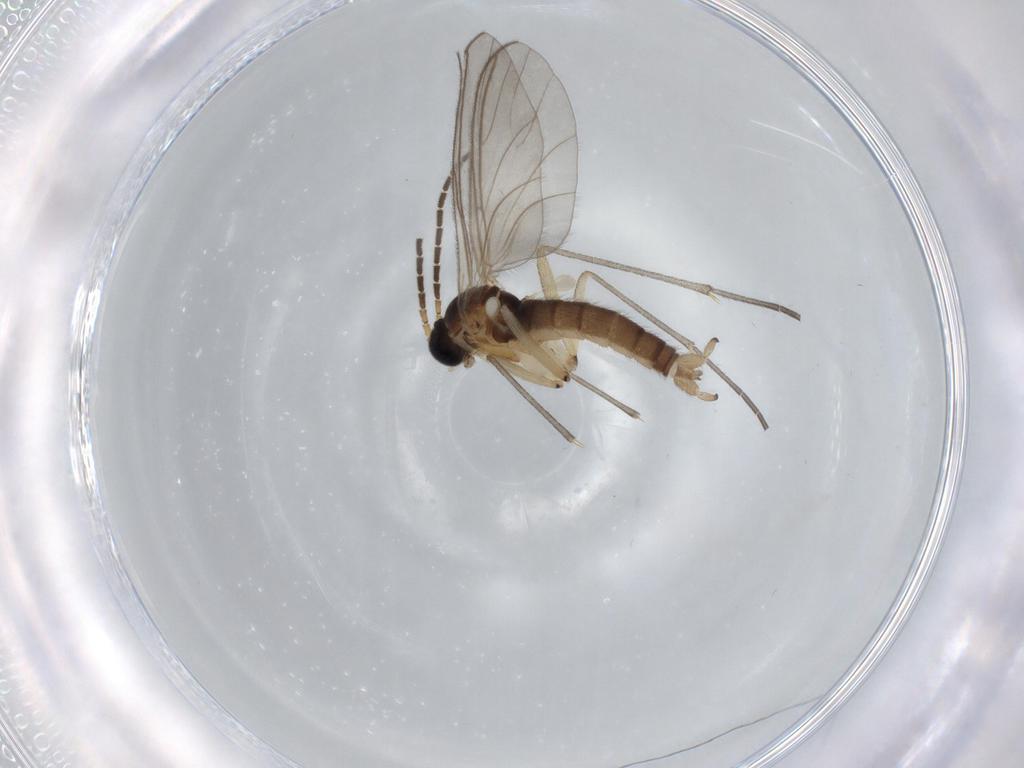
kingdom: Animalia
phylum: Arthropoda
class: Insecta
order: Diptera
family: Sciaridae
